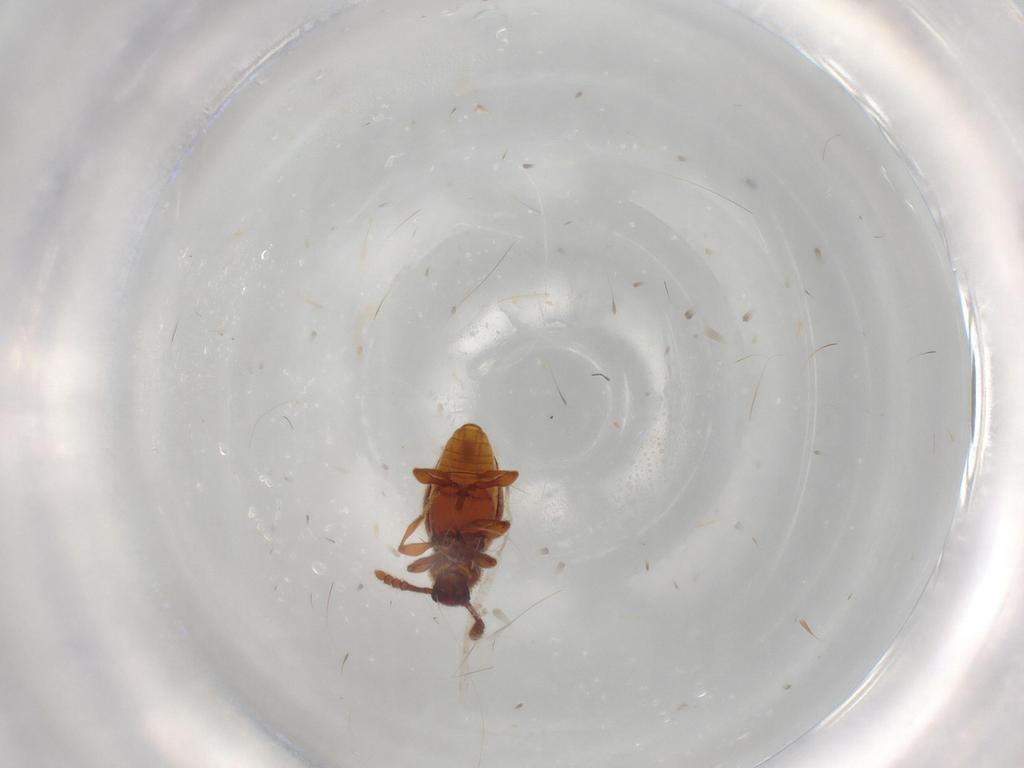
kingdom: Animalia
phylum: Arthropoda
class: Insecta
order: Coleoptera
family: Staphylinidae
